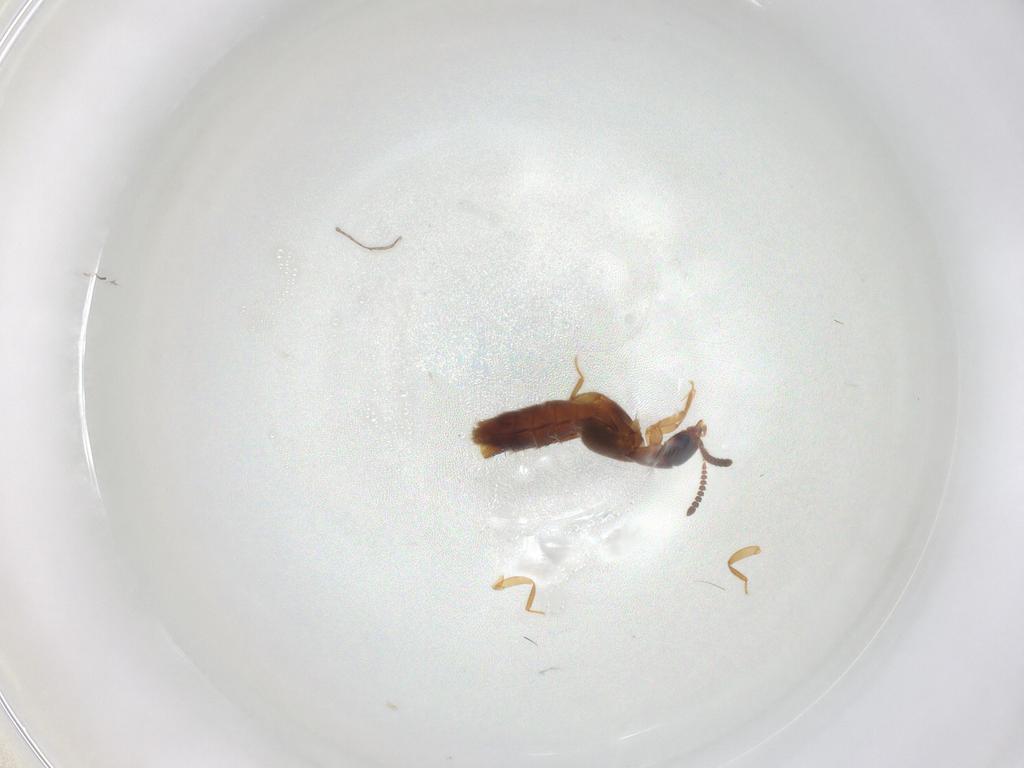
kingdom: Animalia
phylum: Arthropoda
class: Insecta
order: Coleoptera
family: Staphylinidae
